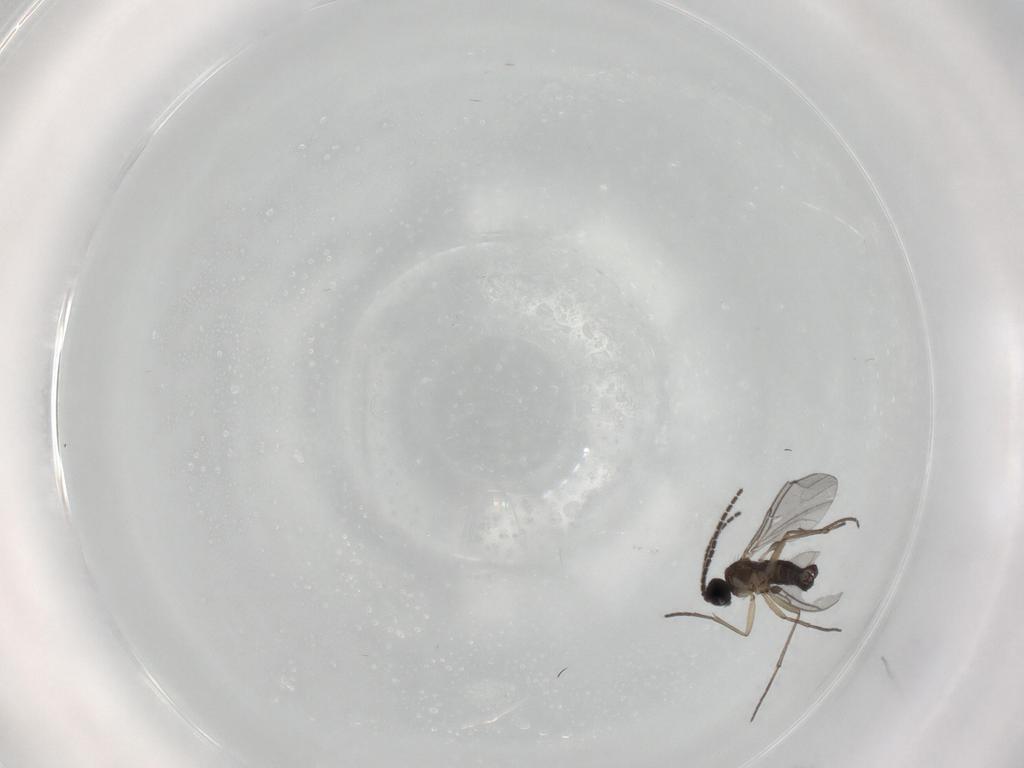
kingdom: Animalia
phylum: Arthropoda
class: Insecta
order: Diptera
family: Sciaridae
